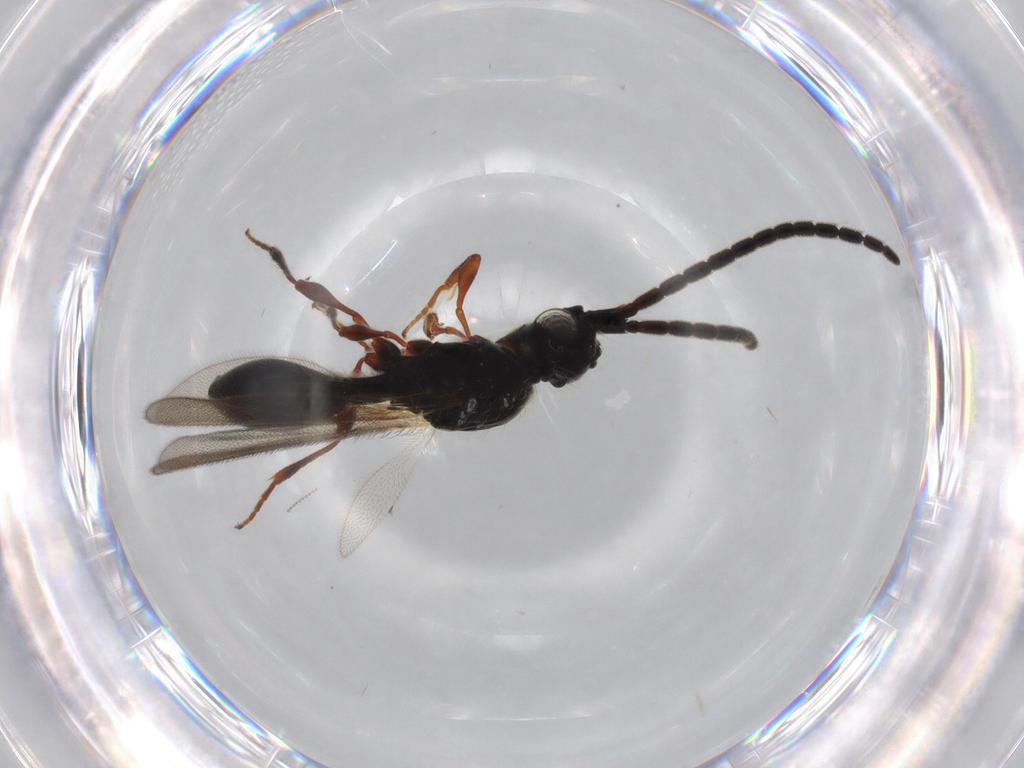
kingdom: Animalia
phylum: Arthropoda
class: Insecta
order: Hymenoptera
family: Diapriidae
